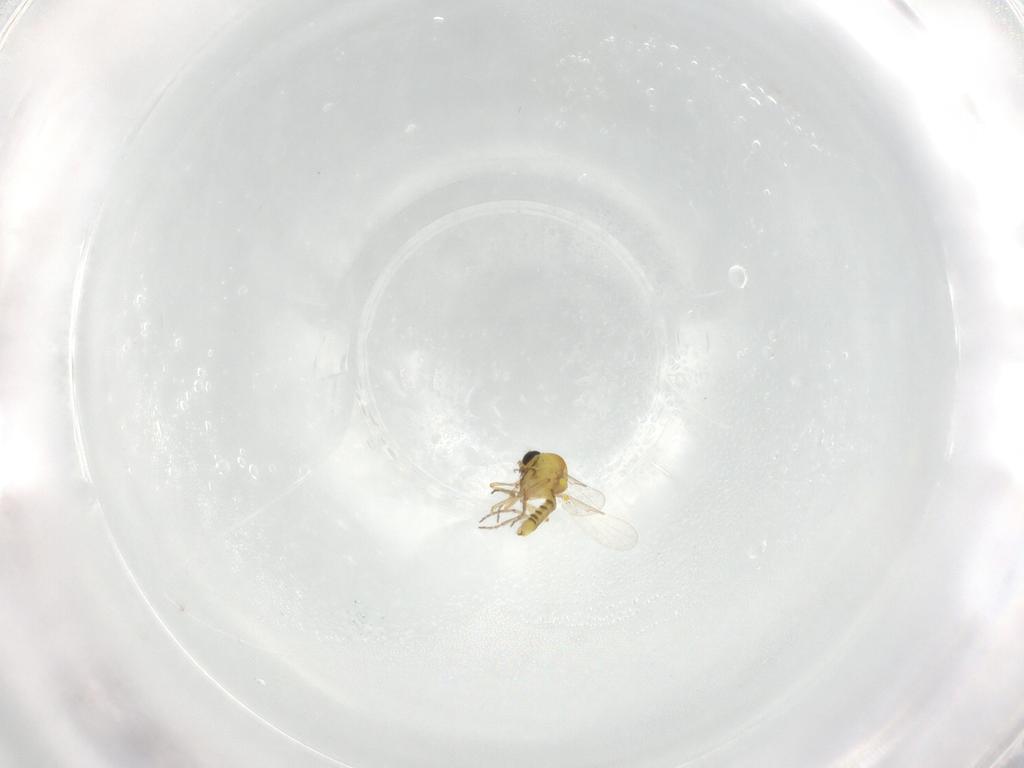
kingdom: Animalia
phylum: Arthropoda
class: Insecta
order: Diptera
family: Ceratopogonidae
